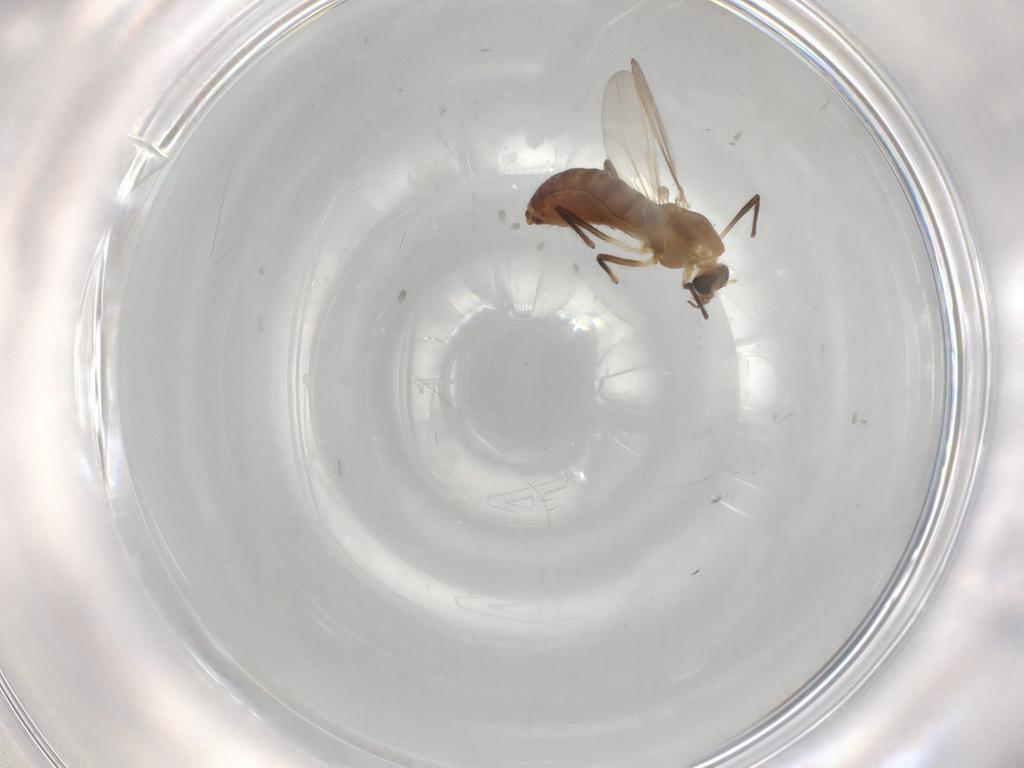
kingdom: Animalia
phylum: Arthropoda
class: Insecta
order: Diptera
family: Chironomidae
